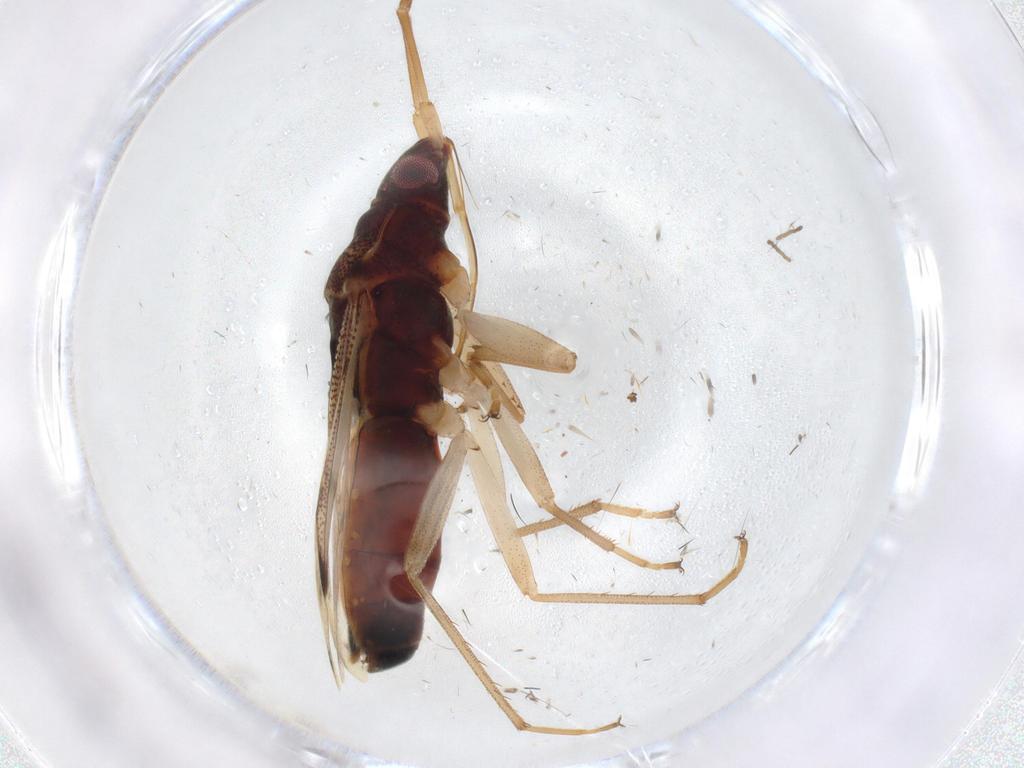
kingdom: Animalia
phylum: Arthropoda
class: Insecta
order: Hemiptera
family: Rhyparochromidae
